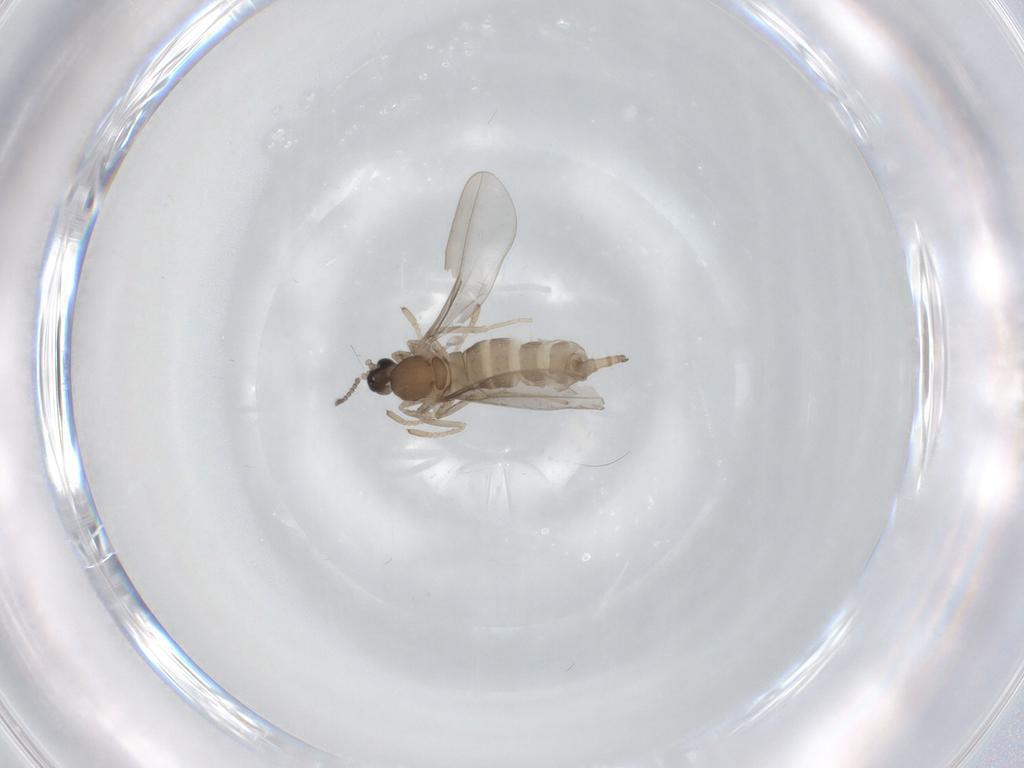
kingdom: Animalia
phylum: Arthropoda
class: Insecta
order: Diptera
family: Cecidomyiidae
